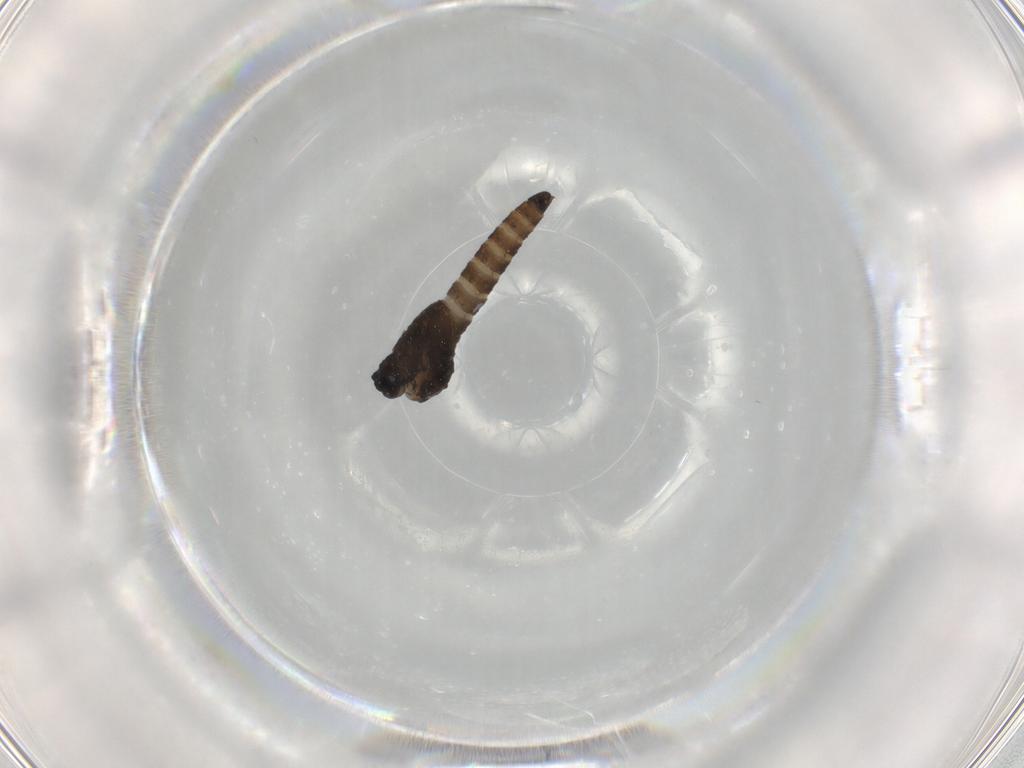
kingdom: Animalia
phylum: Arthropoda
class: Insecta
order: Diptera
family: Ceratopogonidae
